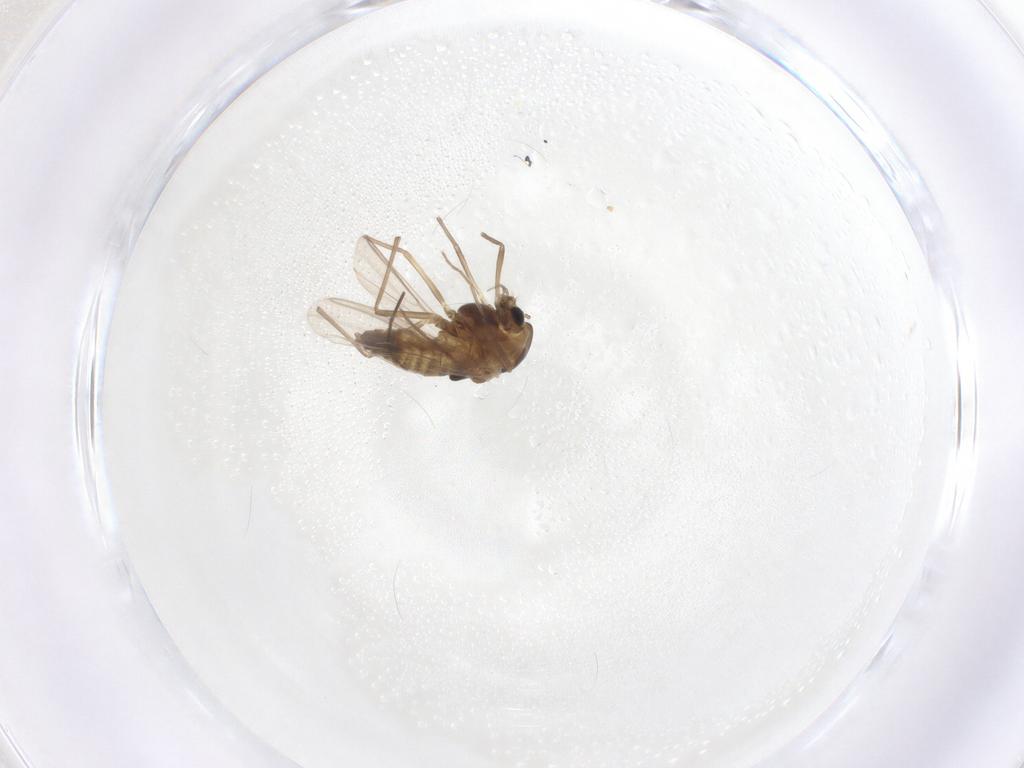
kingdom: Animalia
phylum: Arthropoda
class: Insecta
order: Diptera
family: Chironomidae
